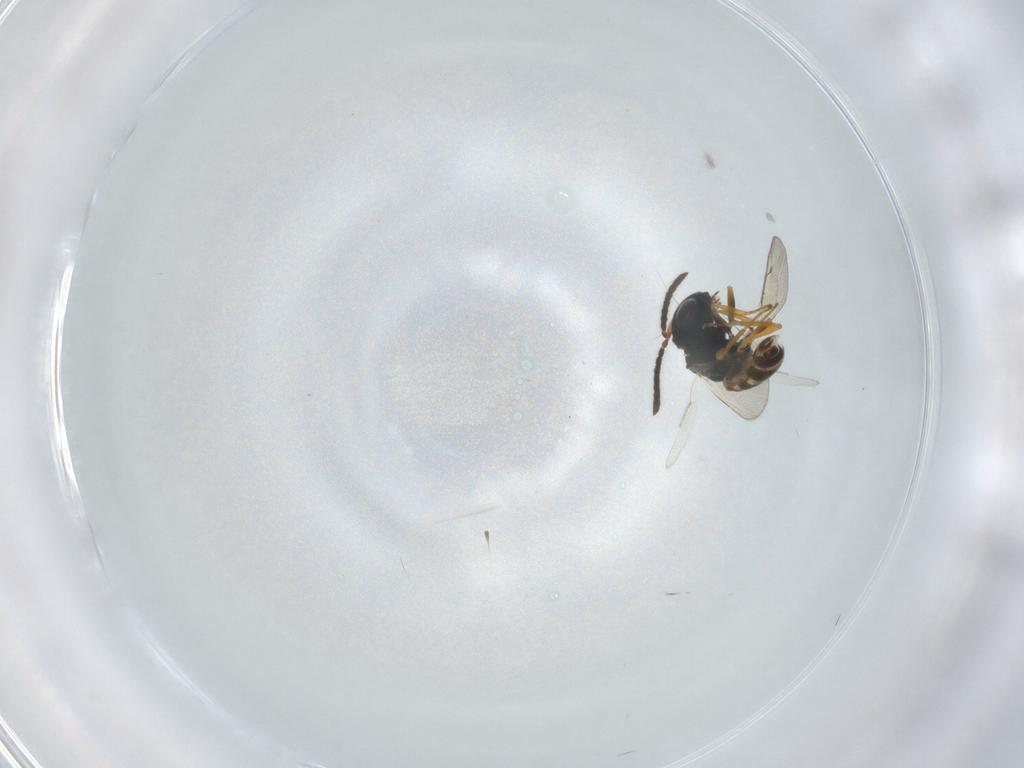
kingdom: Animalia
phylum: Arthropoda
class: Insecta
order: Hymenoptera
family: Pteromalidae
